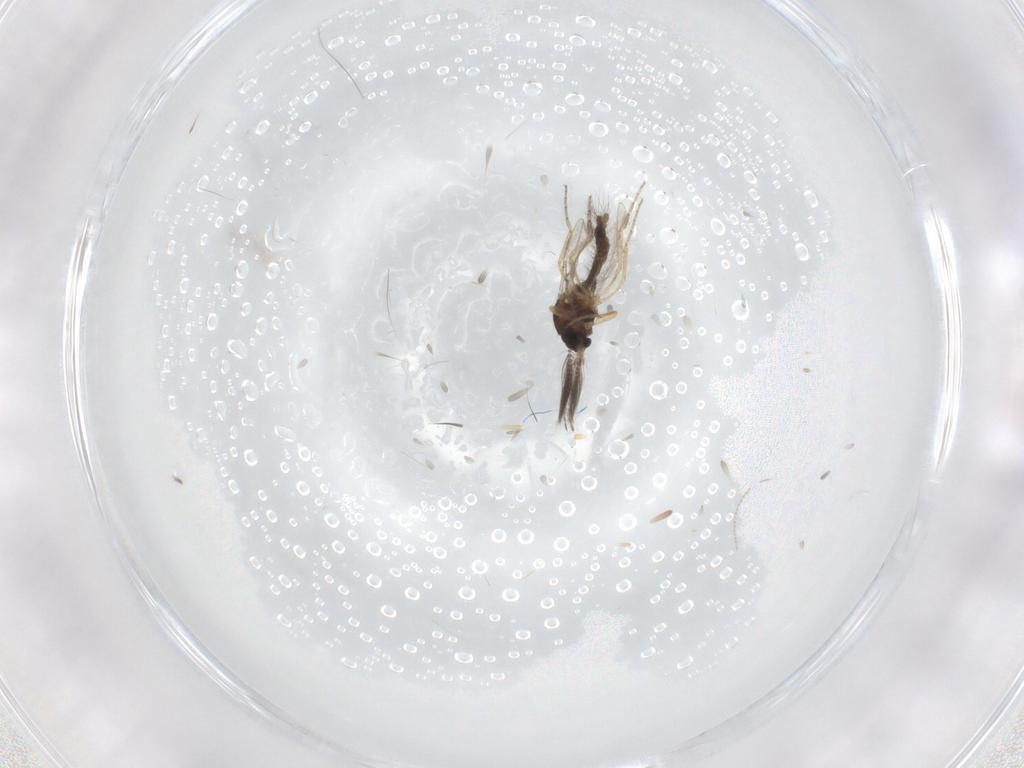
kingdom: Animalia
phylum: Arthropoda
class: Insecta
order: Diptera
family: Ceratopogonidae
